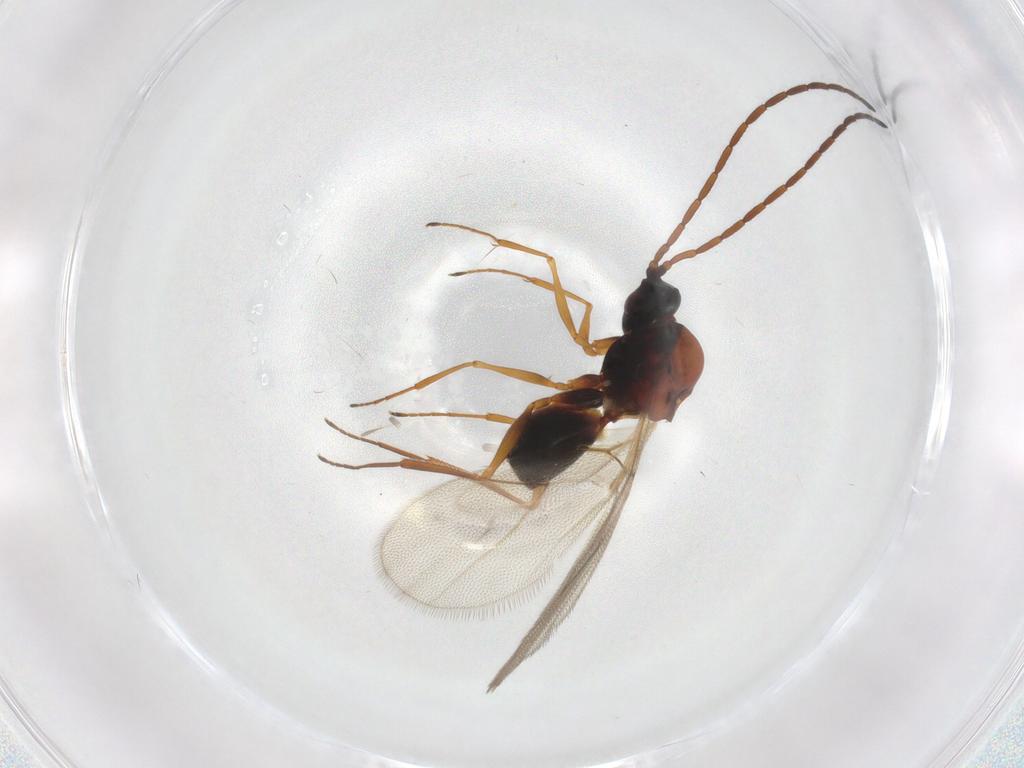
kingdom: Animalia
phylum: Arthropoda
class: Insecta
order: Hymenoptera
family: Figitidae
